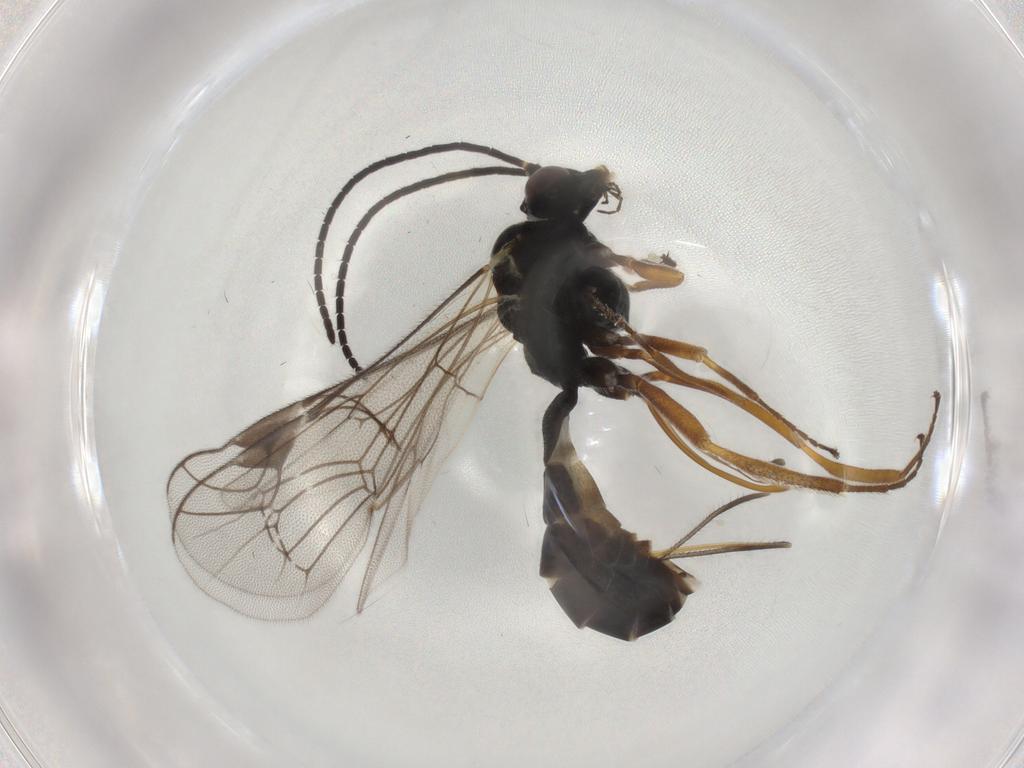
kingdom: Animalia
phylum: Arthropoda
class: Insecta
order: Hymenoptera
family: Ichneumonidae
